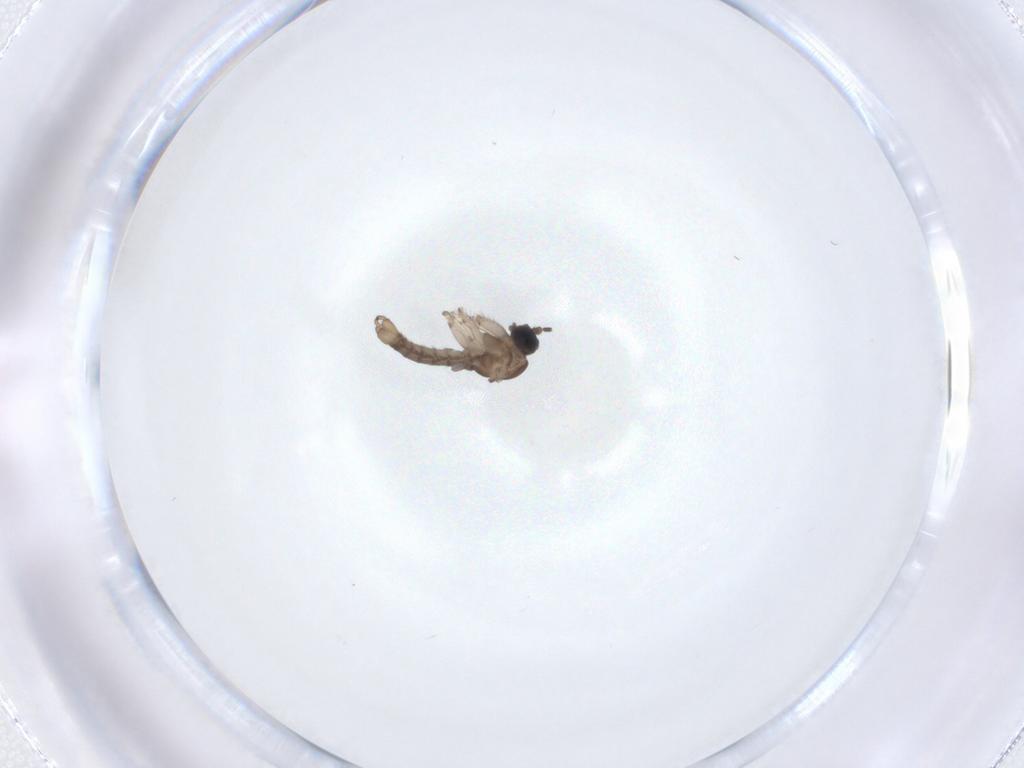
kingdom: Animalia
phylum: Arthropoda
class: Insecta
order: Diptera
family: Sciaridae
